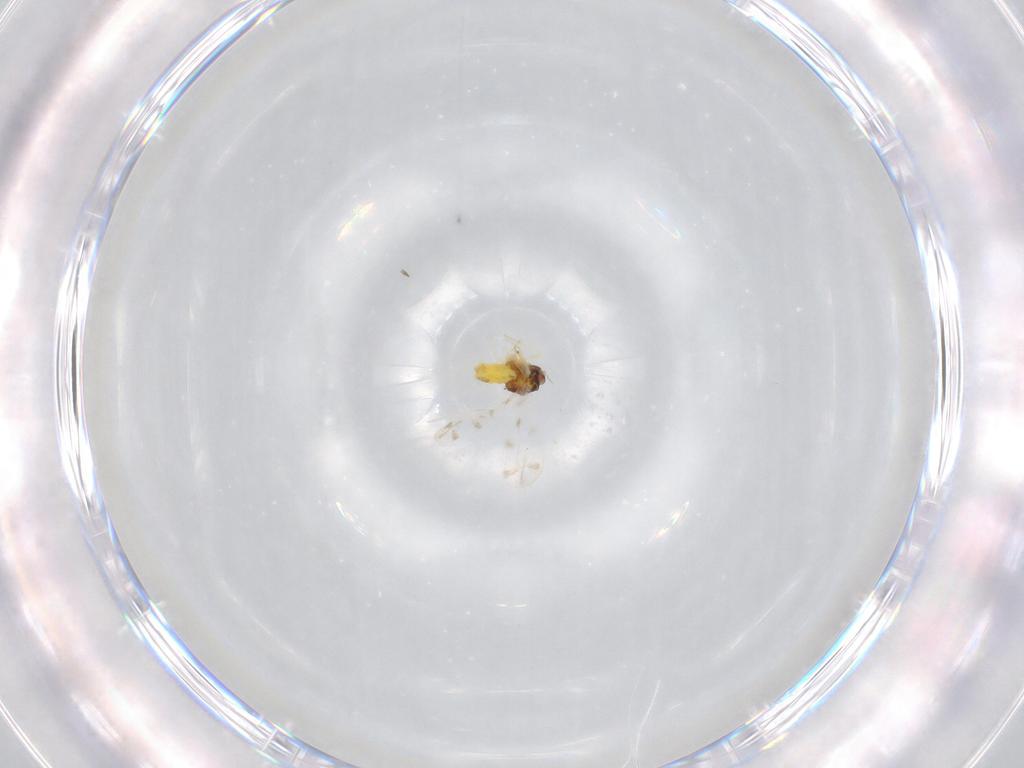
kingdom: Animalia
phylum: Arthropoda
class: Insecta
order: Hemiptera
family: Aleyrodidae
